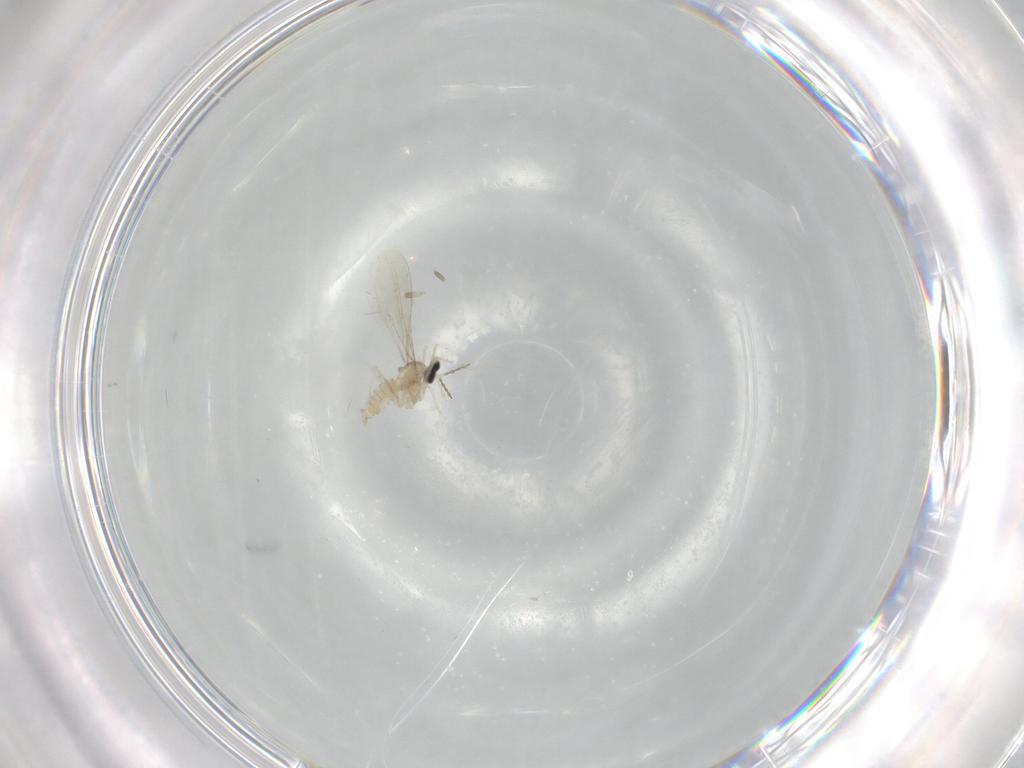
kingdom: Animalia
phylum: Arthropoda
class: Insecta
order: Diptera
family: Cecidomyiidae
